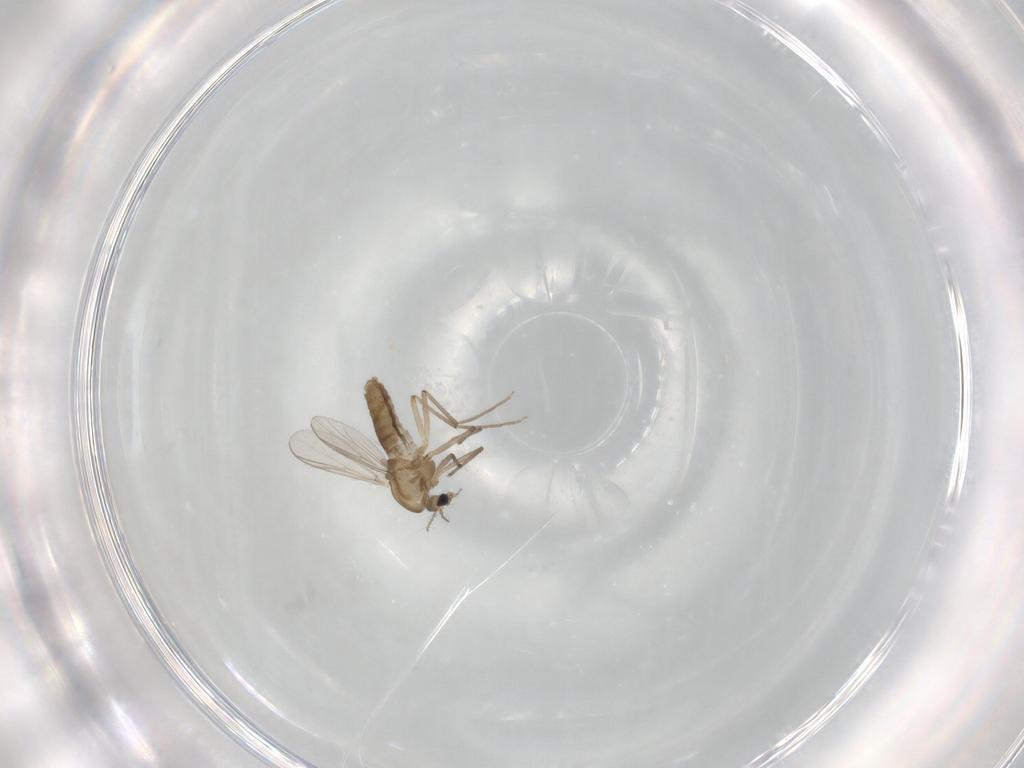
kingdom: Animalia
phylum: Arthropoda
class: Insecta
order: Diptera
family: Chironomidae
